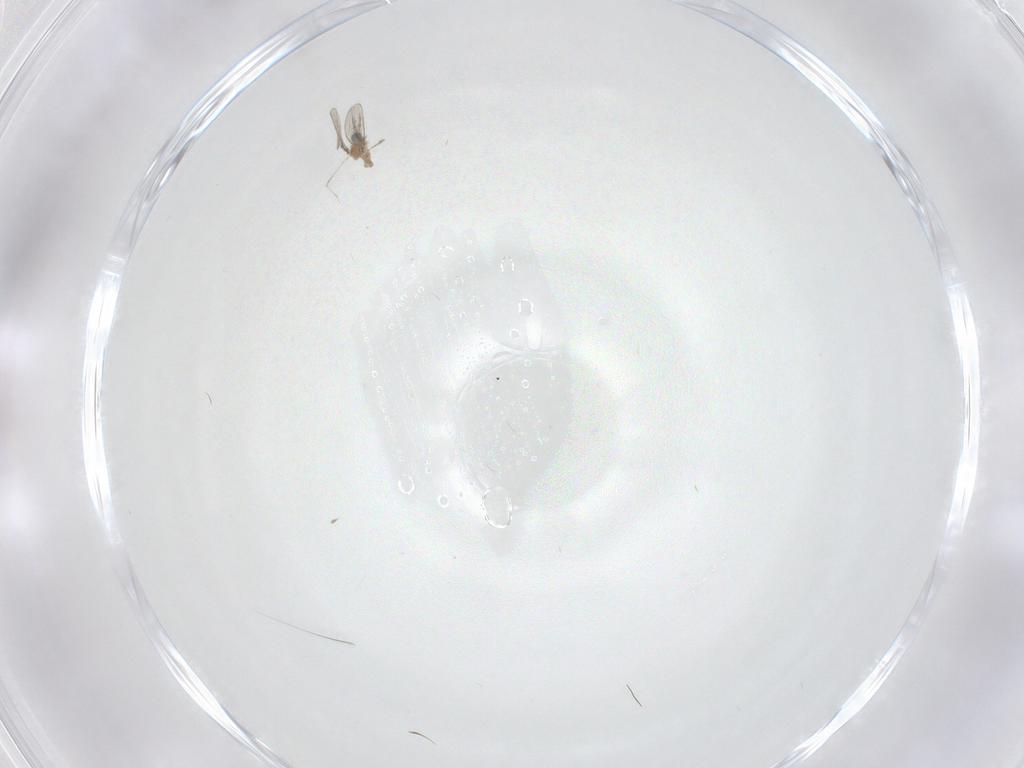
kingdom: Animalia
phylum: Arthropoda
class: Insecta
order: Diptera
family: Cecidomyiidae
